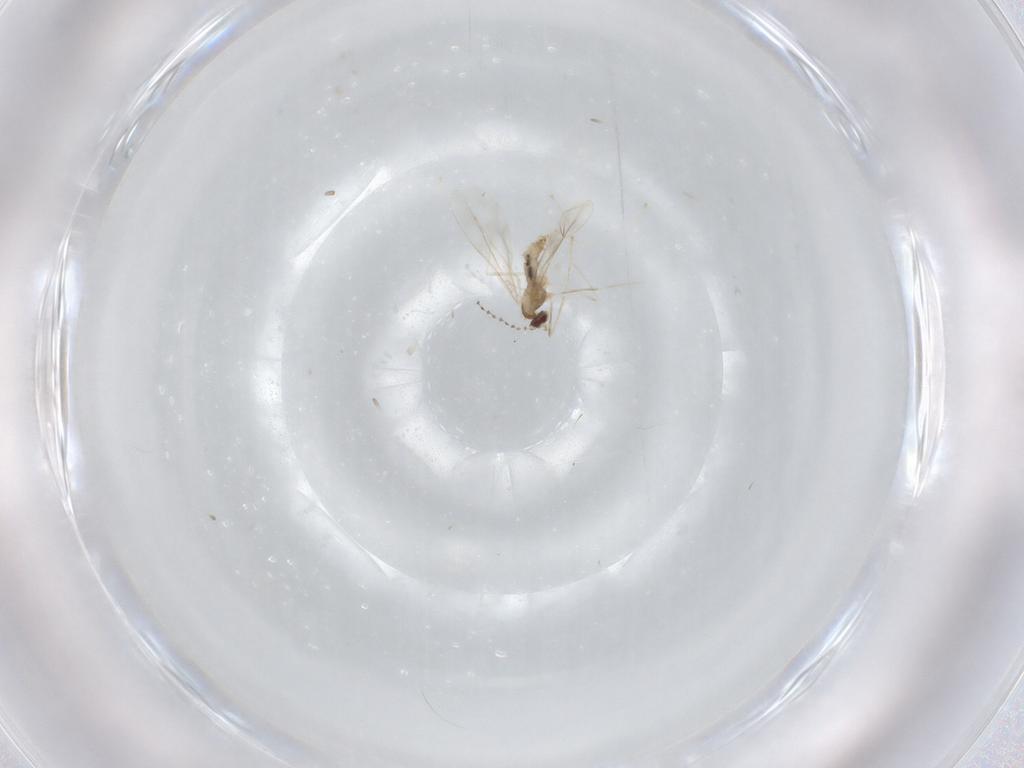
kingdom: Animalia
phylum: Arthropoda
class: Insecta
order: Diptera
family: Cecidomyiidae
